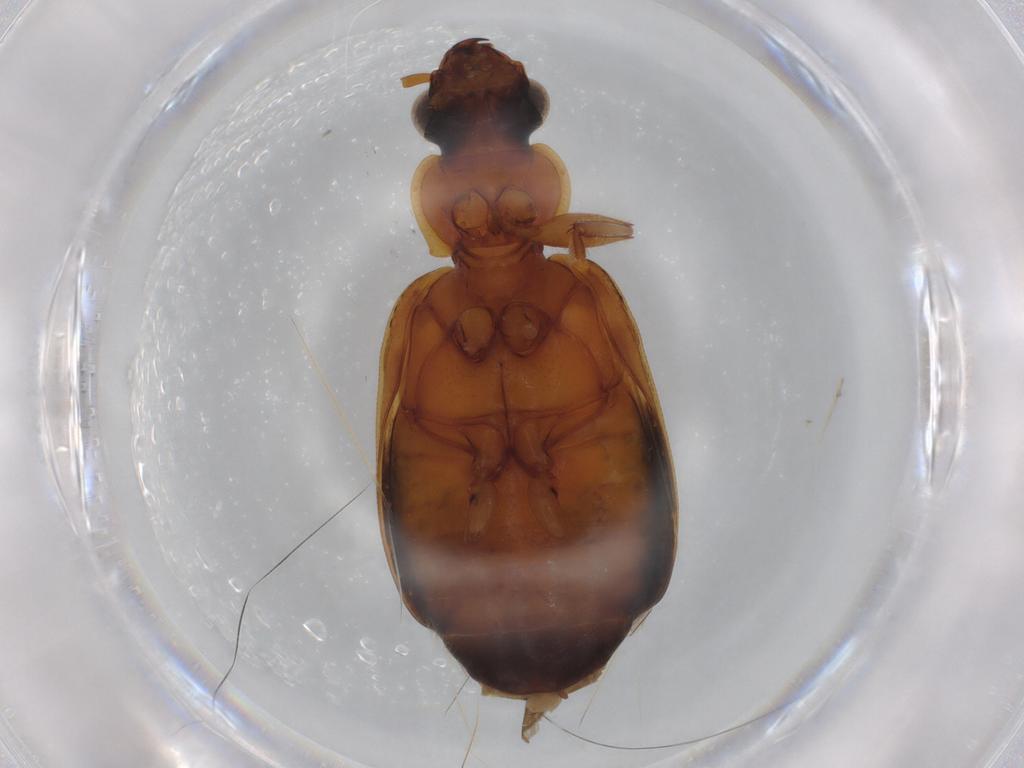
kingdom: Animalia
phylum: Arthropoda
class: Insecta
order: Coleoptera
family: Carabidae
